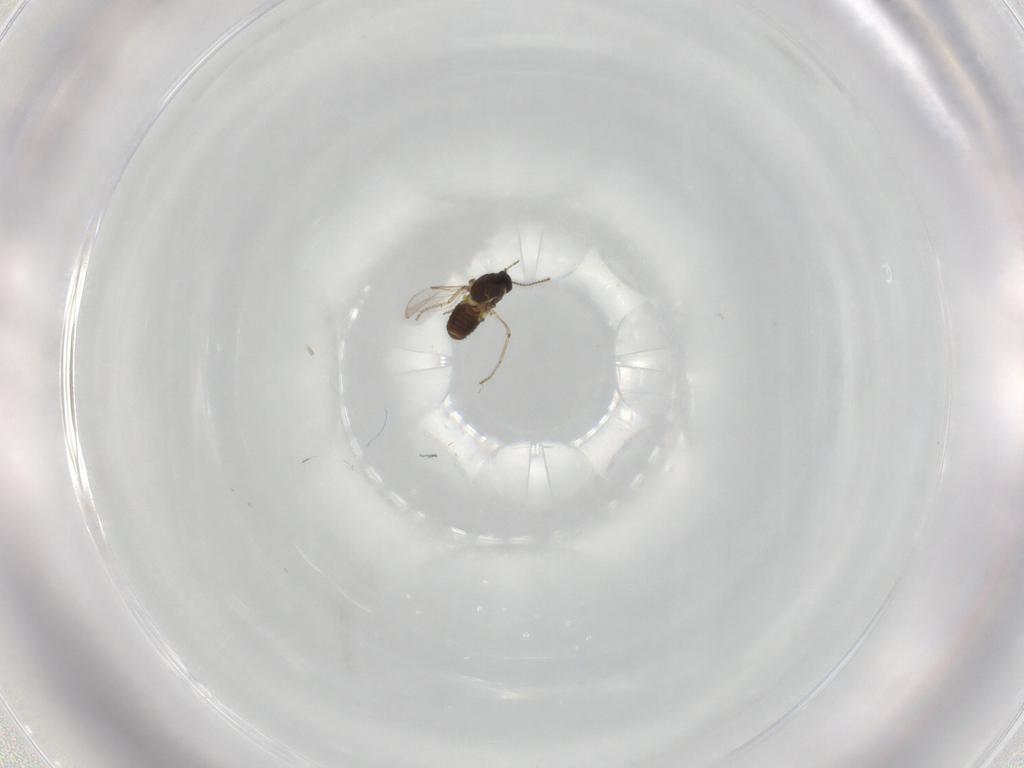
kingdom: Animalia
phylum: Arthropoda
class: Insecta
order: Diptera
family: Ceratopogonidae
